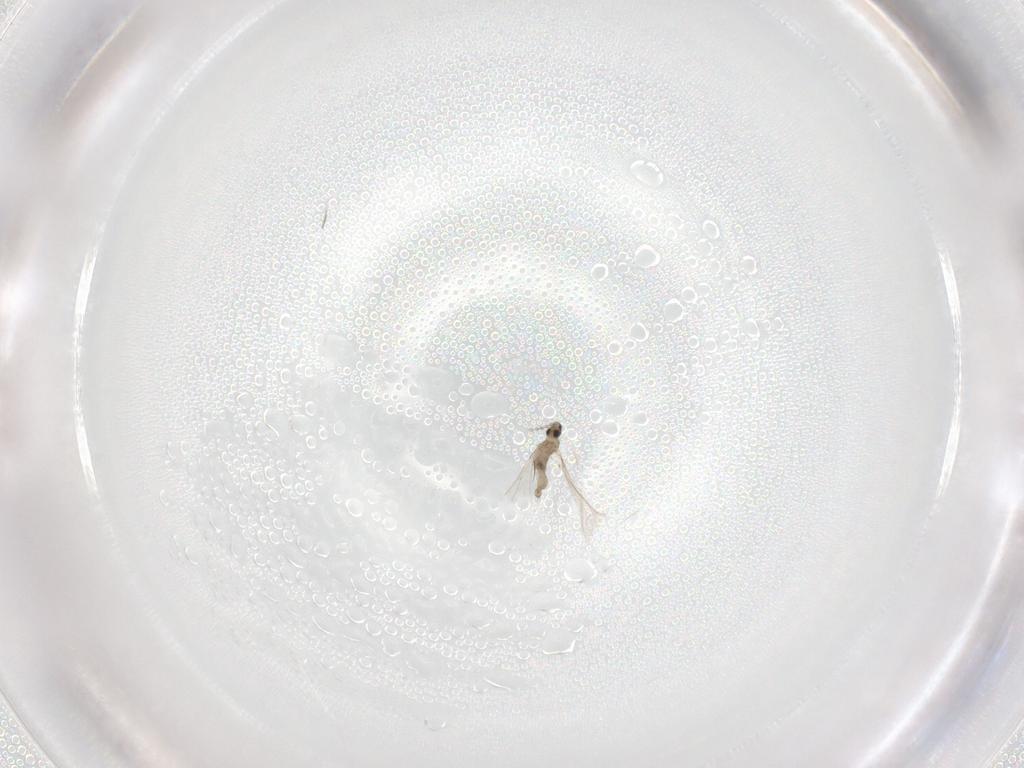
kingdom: Animalia
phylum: Arthropoda
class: Insecta
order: Diptera
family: Cecidomyiidae
